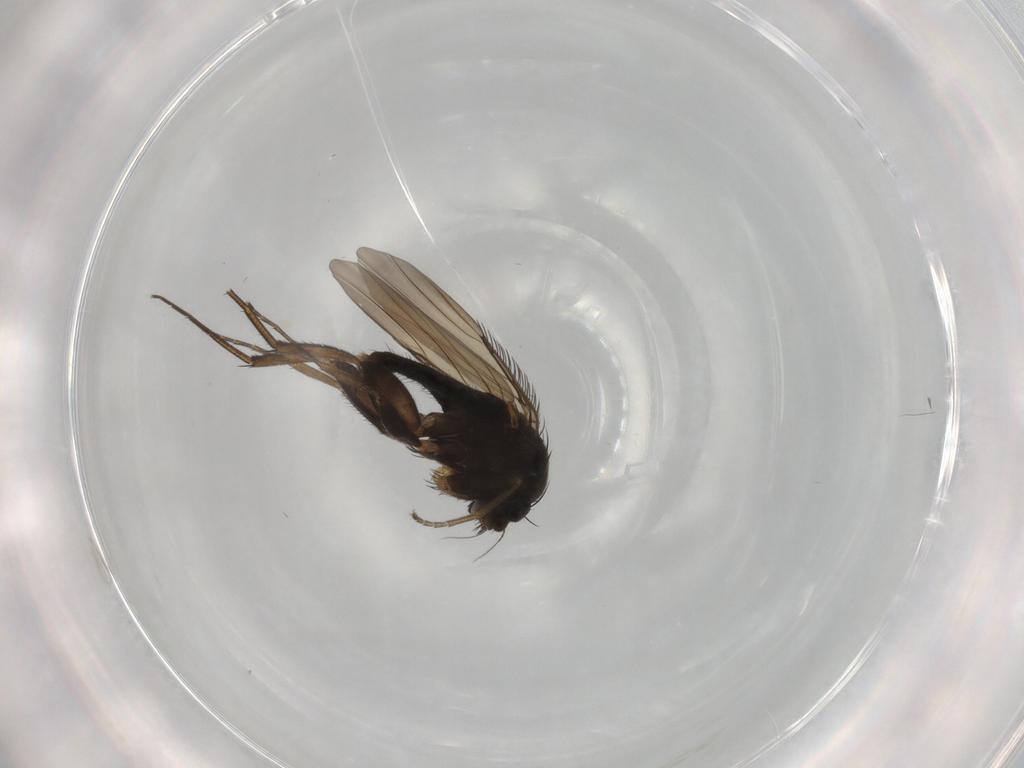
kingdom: Animalia
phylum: Arthropoda
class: Insecta
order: Diptera
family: Phoridae
